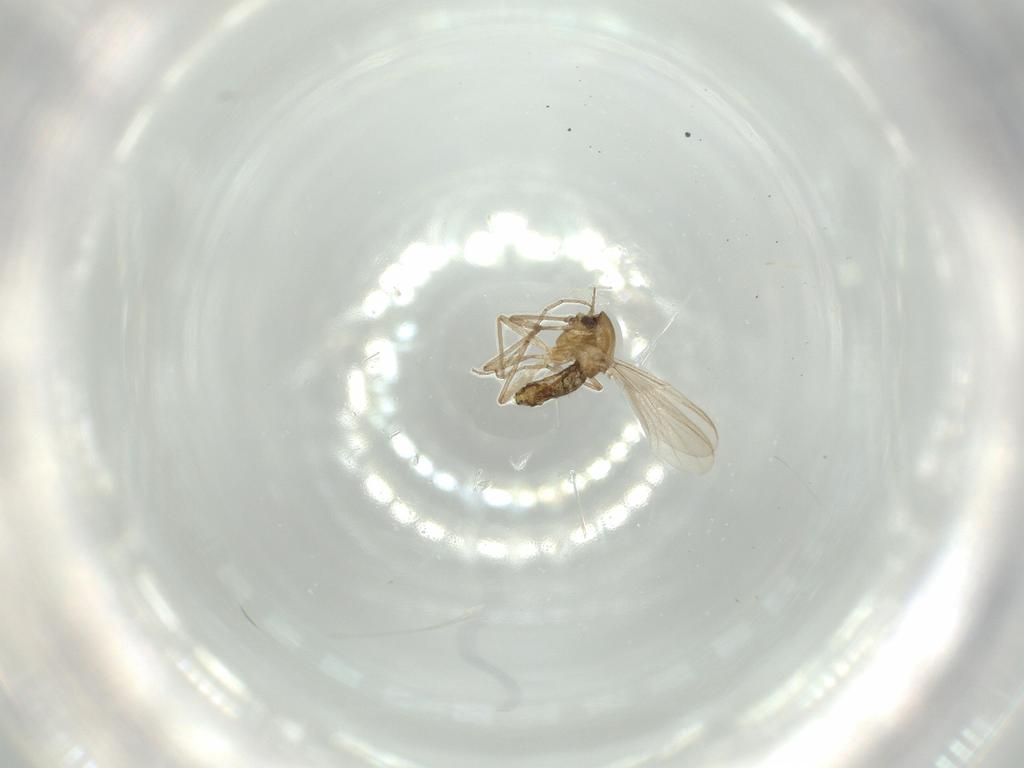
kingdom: Animalia
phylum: Arthropoda
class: Insecta
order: Diptera
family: Chironomidae
